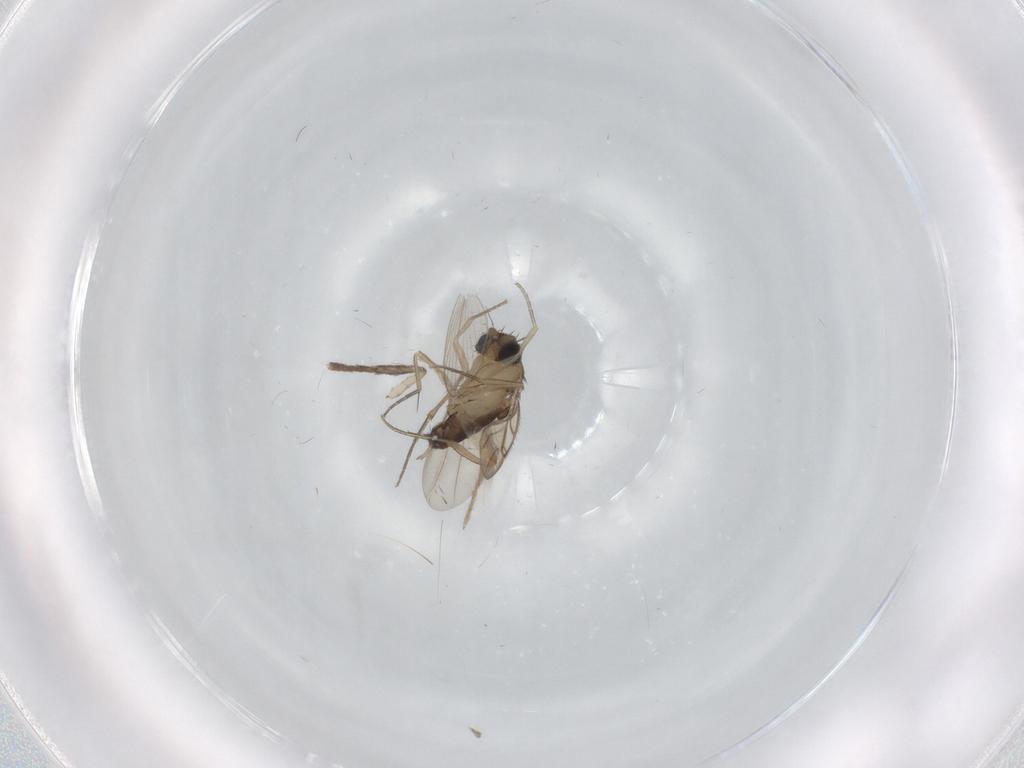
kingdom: Animalia
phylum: Arthropoda
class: Insecta
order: Diptera
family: Phoridae
